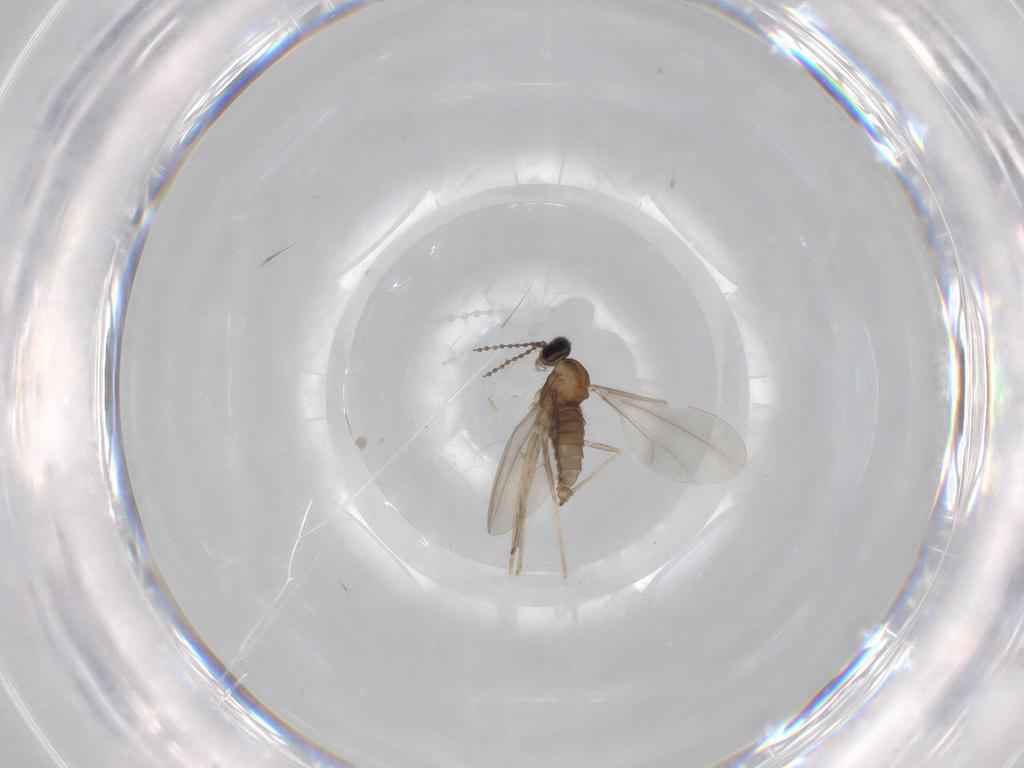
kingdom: Animalia
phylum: Arthropoda
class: Insecta
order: Diptera
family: Cecidomyiidae
